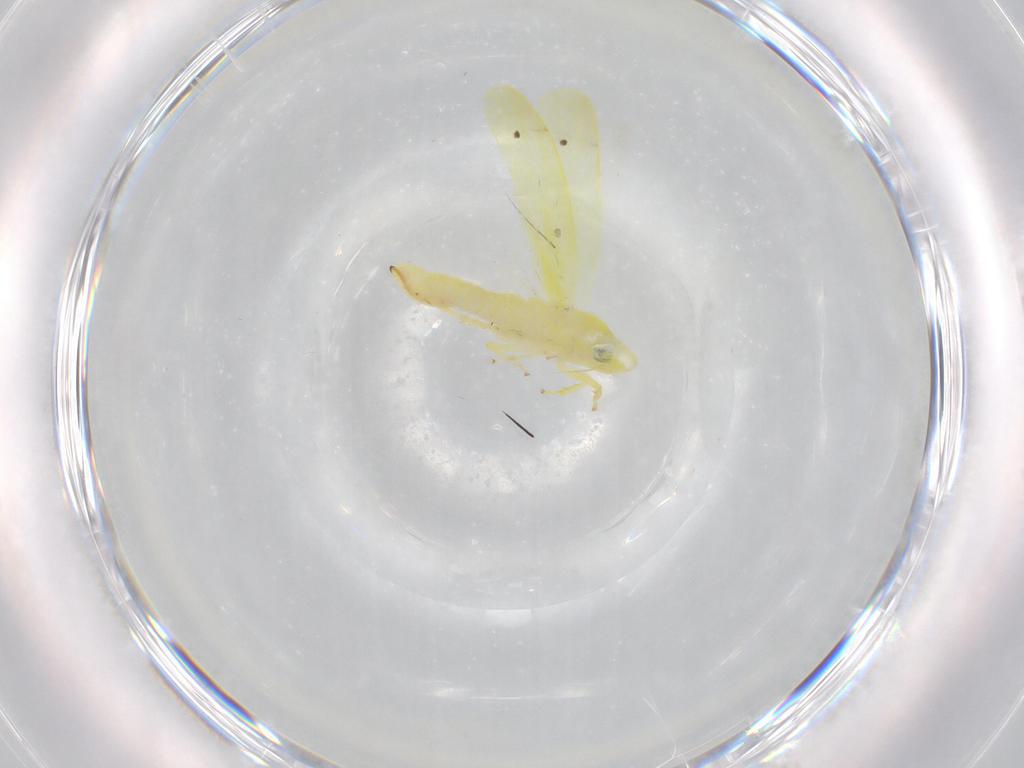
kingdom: Animalia
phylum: Arthropoda
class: Insecta
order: Hemiptera
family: Cicadellidae
